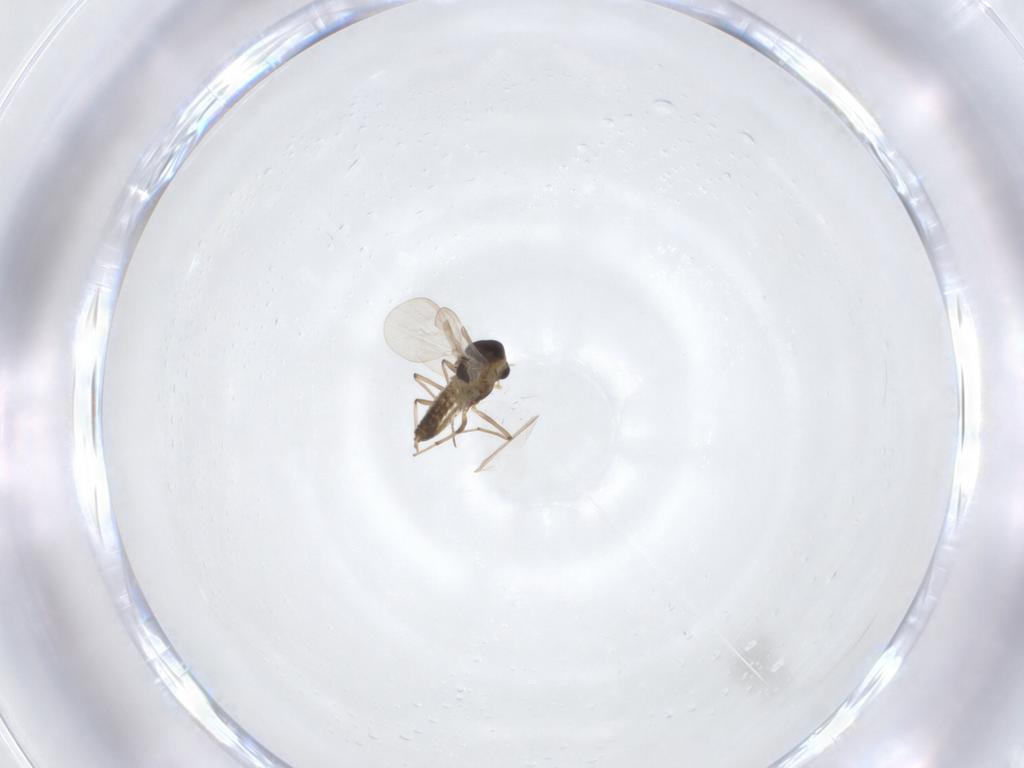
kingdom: Animalia
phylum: Arthropoda
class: Insecta
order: Diptera
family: Chironomidae
